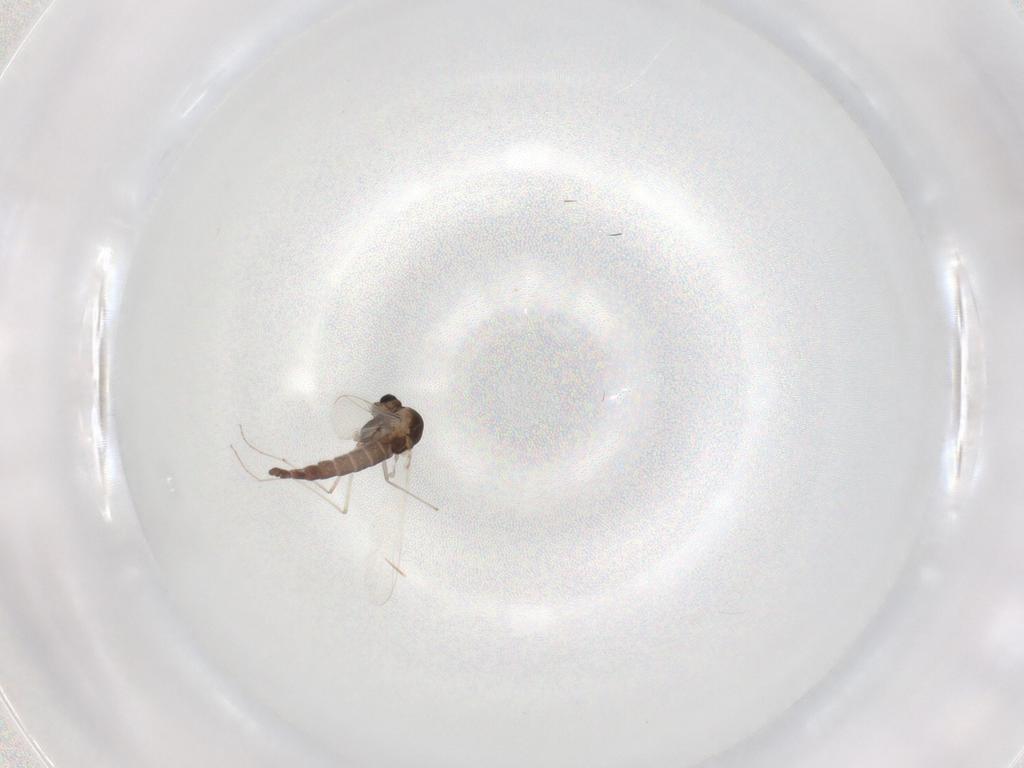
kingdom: Animalia
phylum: Arthropoda
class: Insecta
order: Diptera
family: Chironomidae
